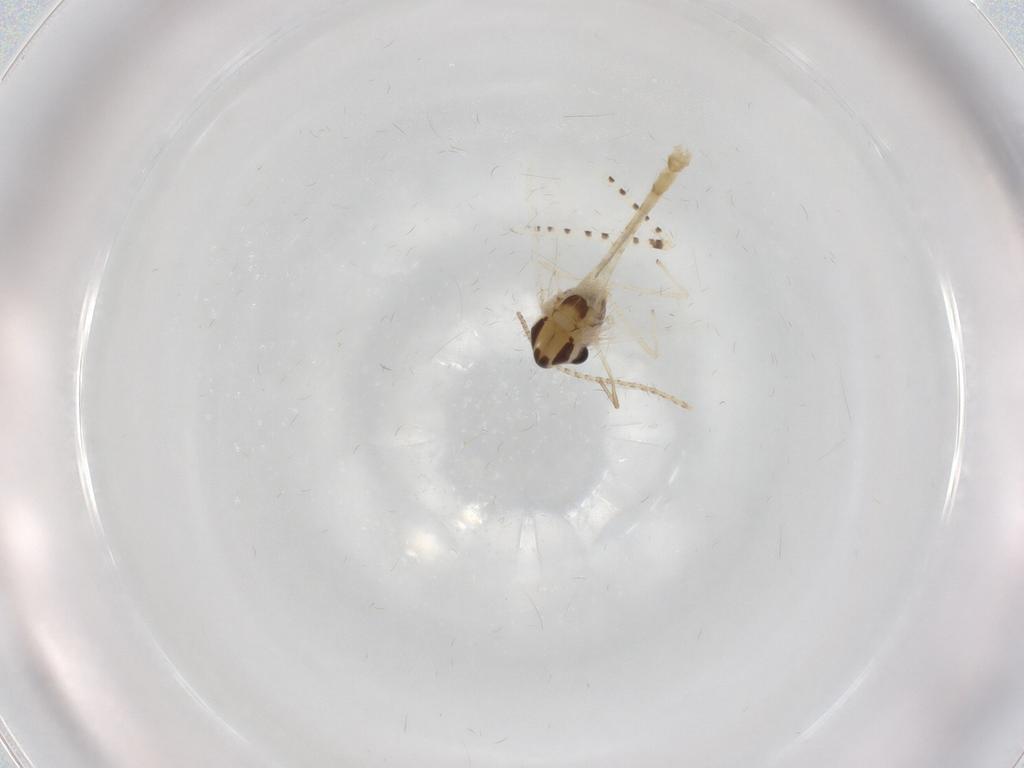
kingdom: Animalia
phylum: Arthropoda
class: Insecta
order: Diptera
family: Chironomidae
